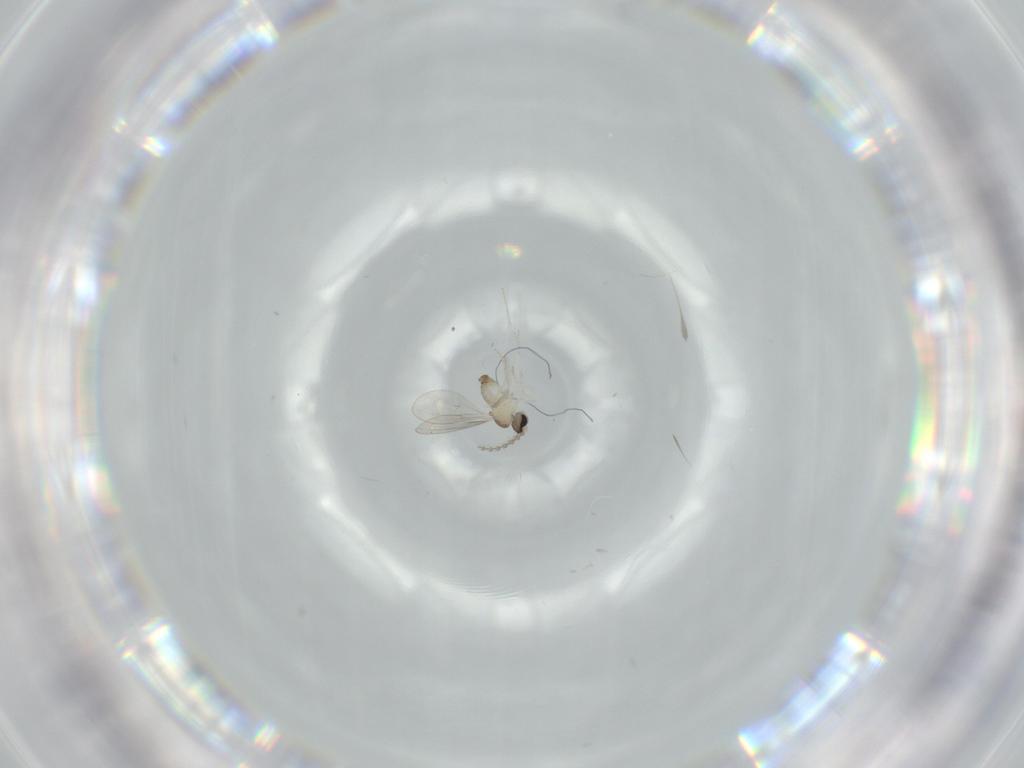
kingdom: Animalia
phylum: Arthropoda
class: Insecta
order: Diptera
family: Cecidomyiidae
